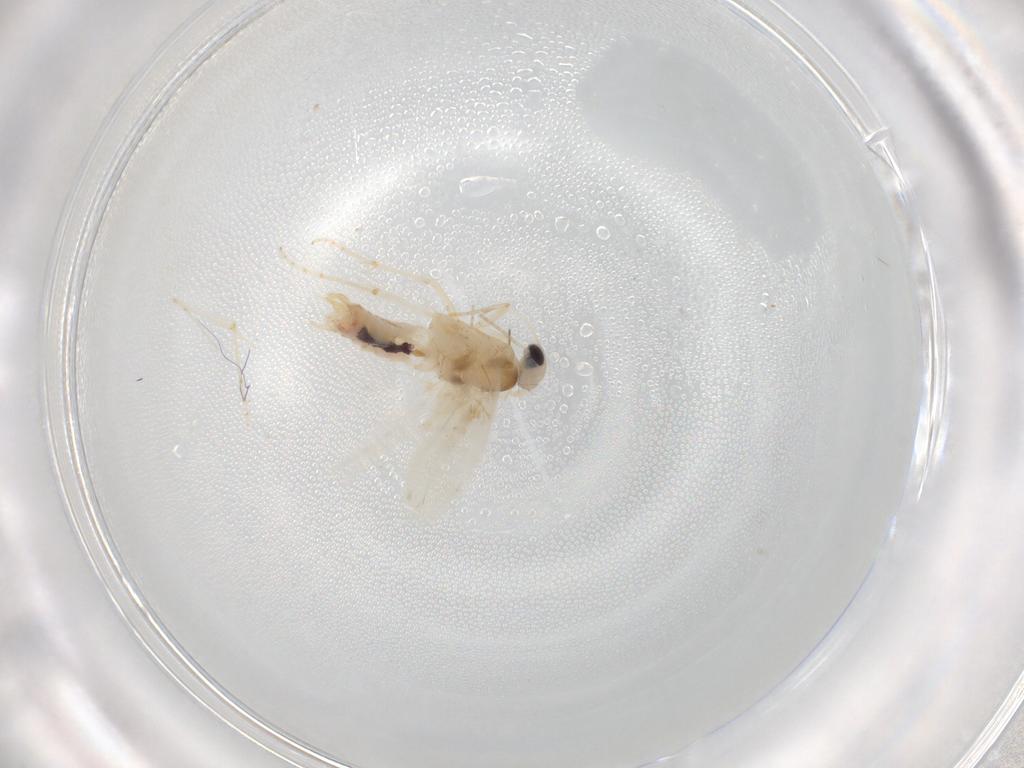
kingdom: Animalia
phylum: Arthropoda
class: Insecta
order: Lepidoptera
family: Bucculatricidae
